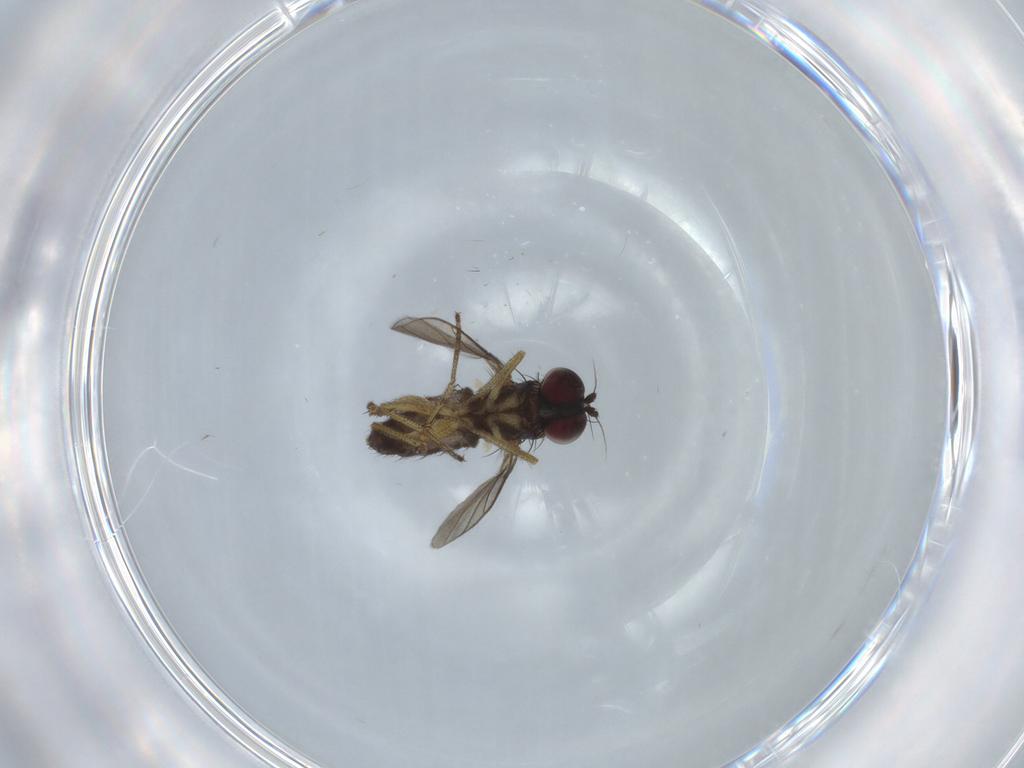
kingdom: Animalia
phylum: Arthropoda
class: Insecta
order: Diptera
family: Dolichopodidae
